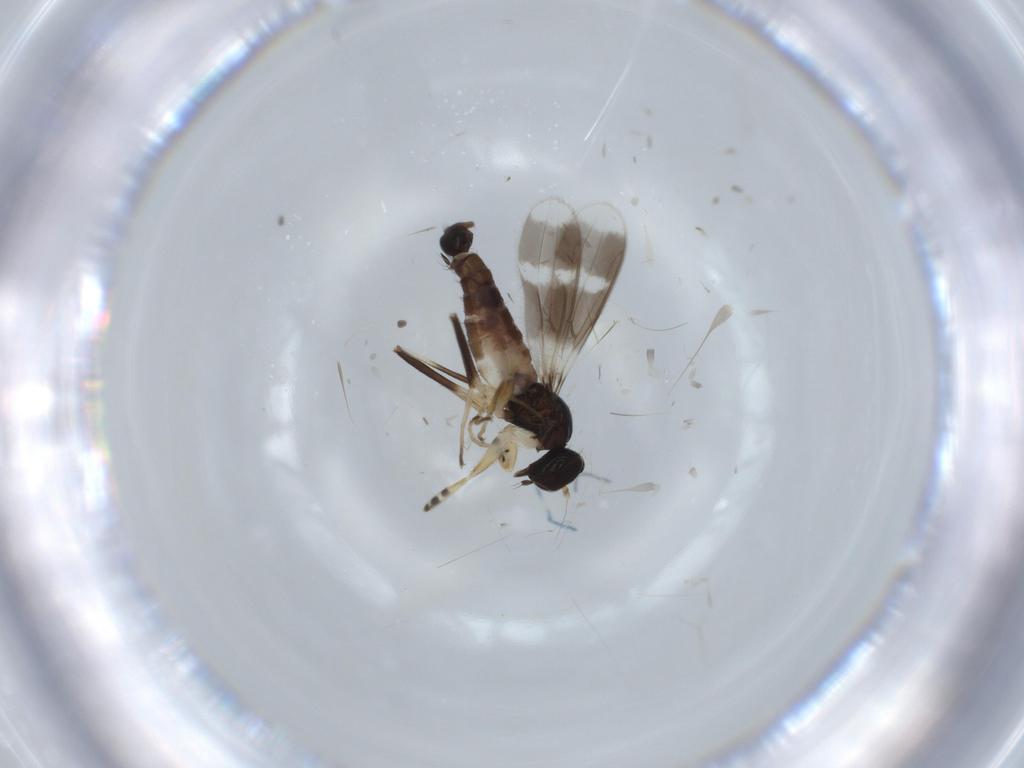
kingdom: Animalia
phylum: Arthropoda
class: Insecta
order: Diptera
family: Hybotidae
